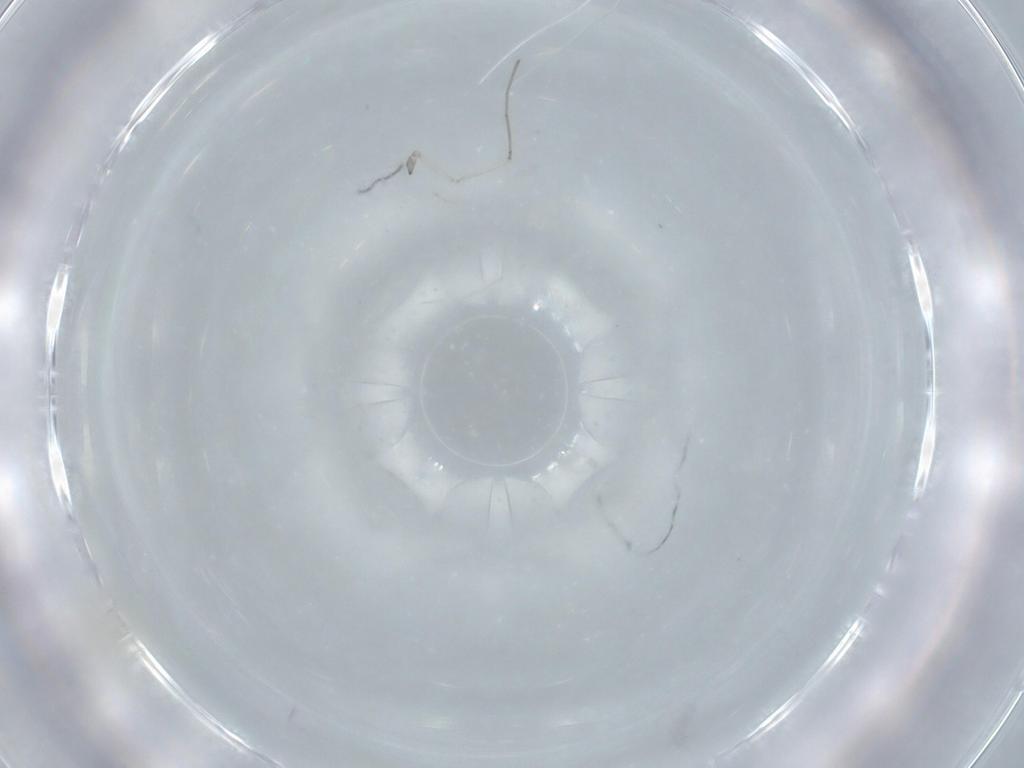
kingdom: Animalia
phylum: Arthropoda
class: Insecta
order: Diptera
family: Cecidomyiidae
